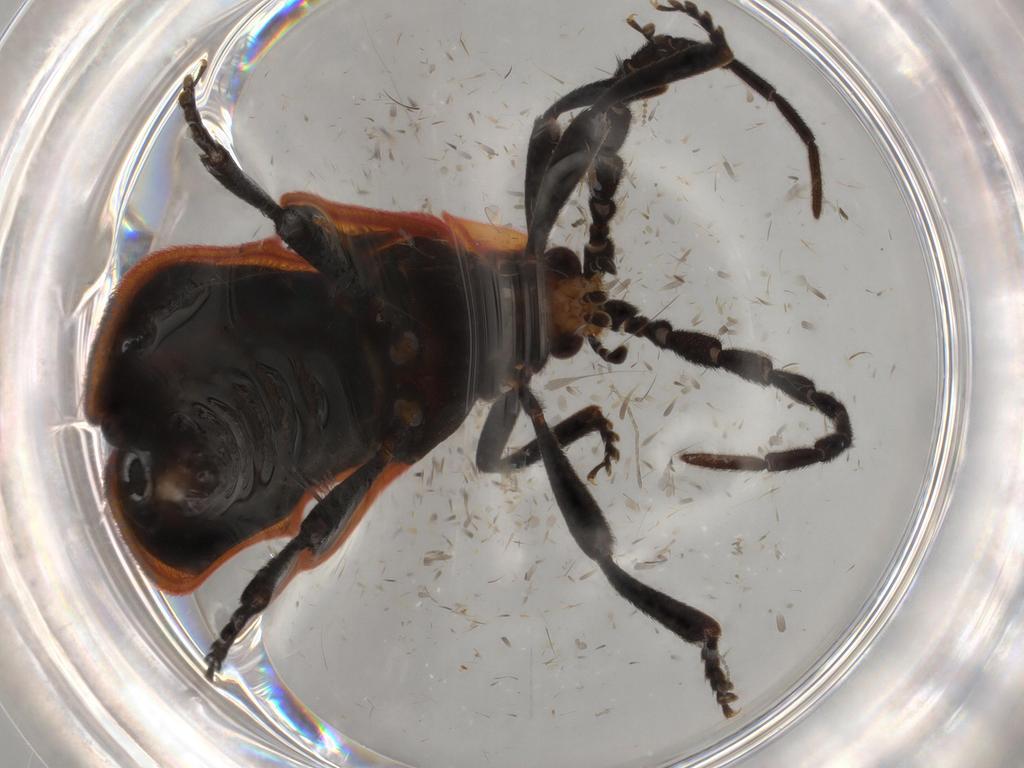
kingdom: Animalia
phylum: Arthropoda
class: Insecta
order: Coleoptera
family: Lycidae
